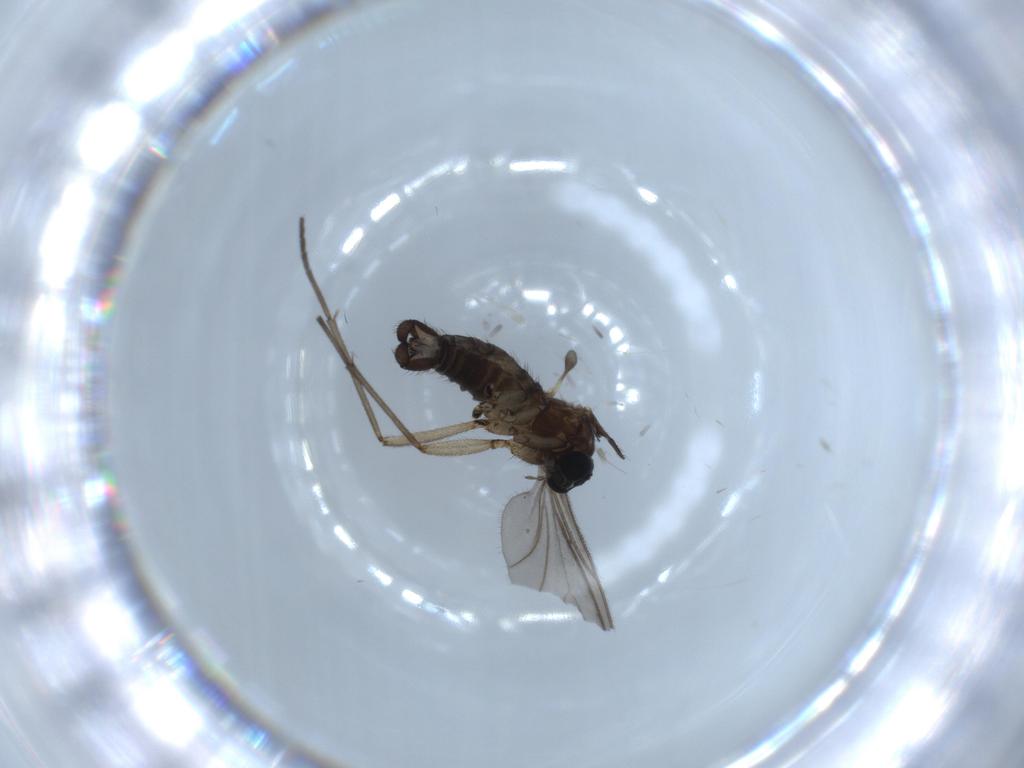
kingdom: Animalia
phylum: Arthropoda
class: Insecta
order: Diptera
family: Sciaridae
